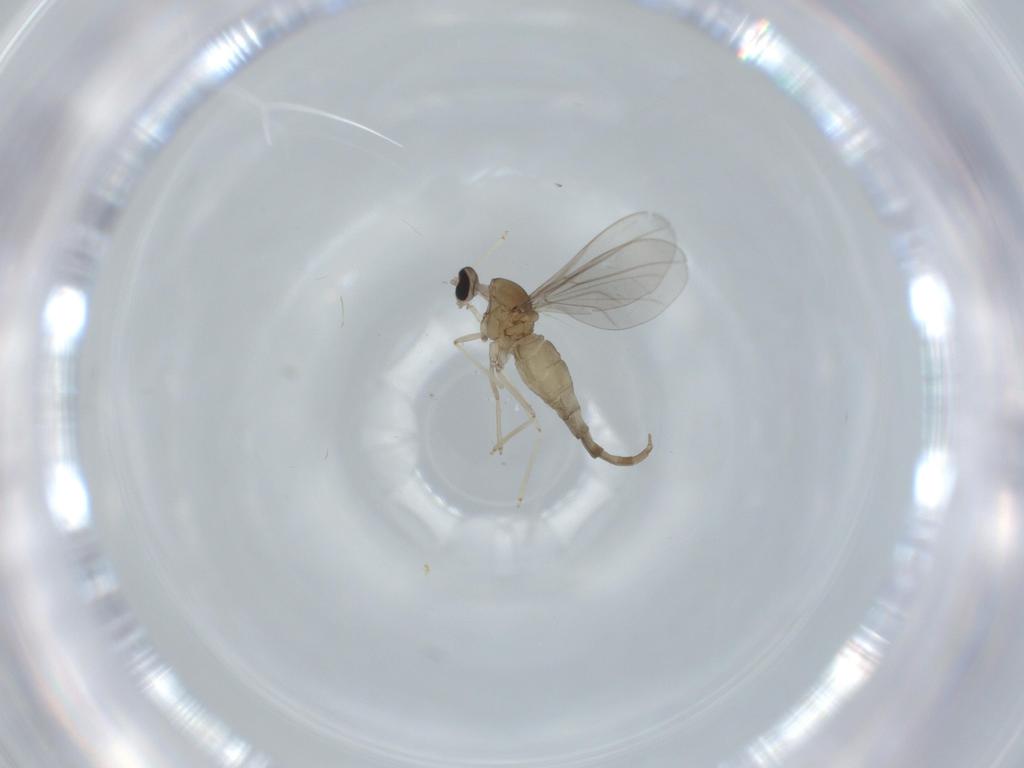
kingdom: Animalia
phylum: Arthropoda
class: Insecta
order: Diptera
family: Cecidomyiidae
